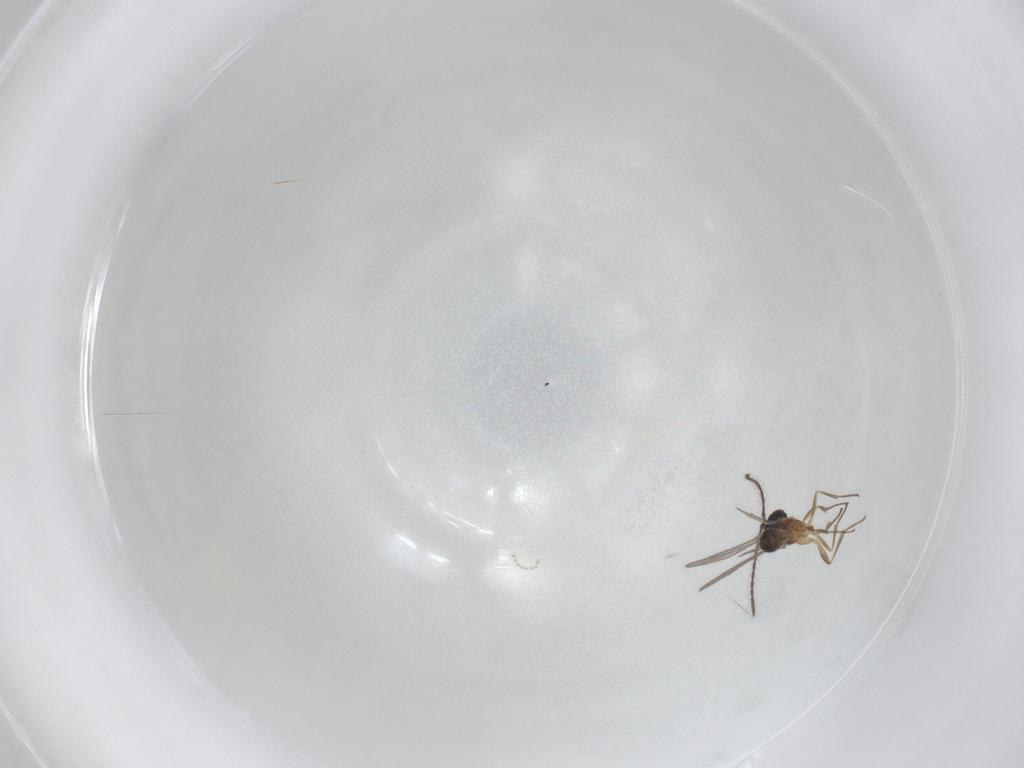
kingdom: Animalia
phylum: Arthropoda
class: Insecta
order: Hymenoptera
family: Eupelmidae
